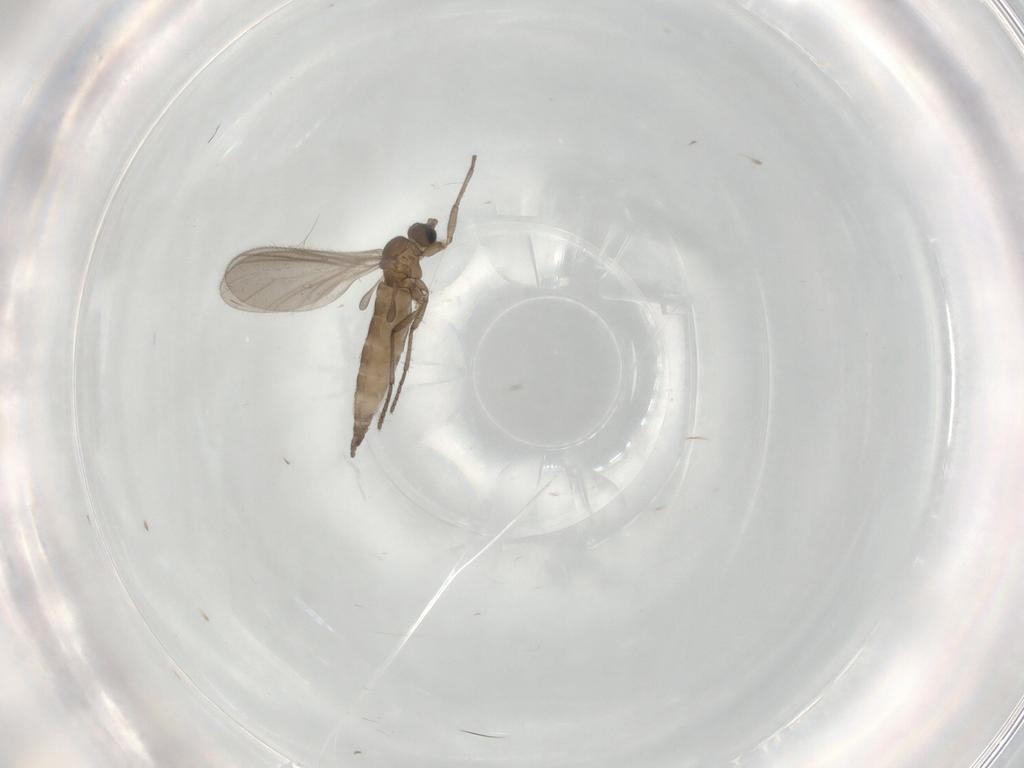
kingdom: Animalia
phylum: Arthropoda
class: Insecta
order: Diptera
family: Sciaridae
